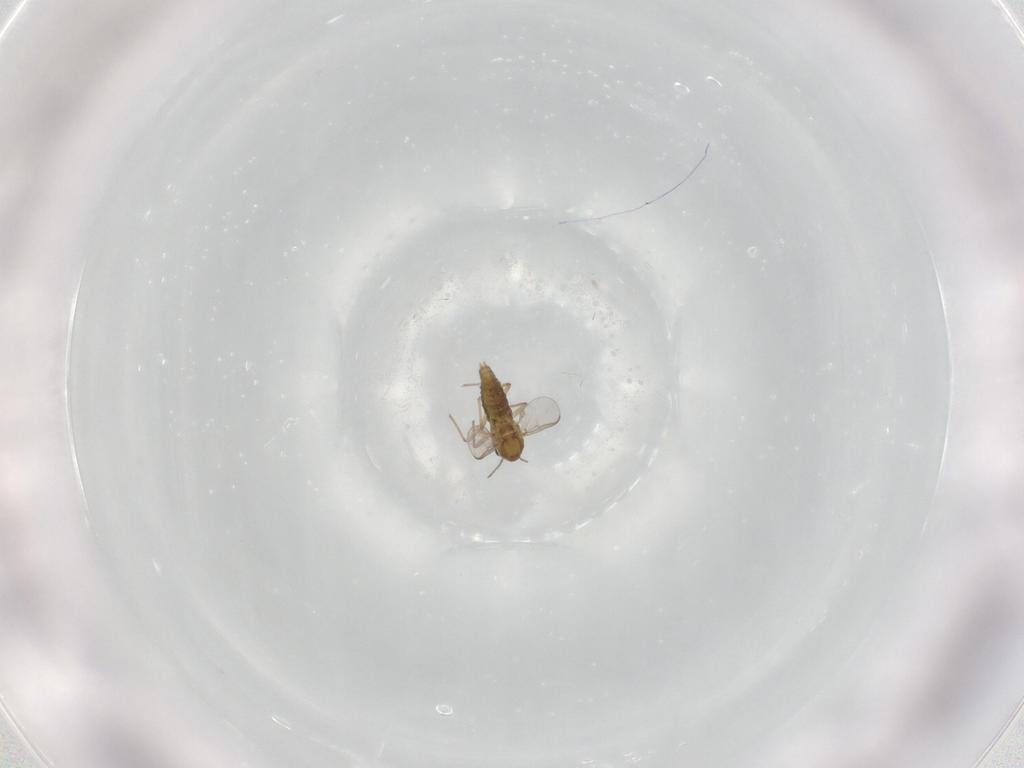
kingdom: Animalia
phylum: Arthropoda
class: Insecta
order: Diptera
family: Chironomidae
